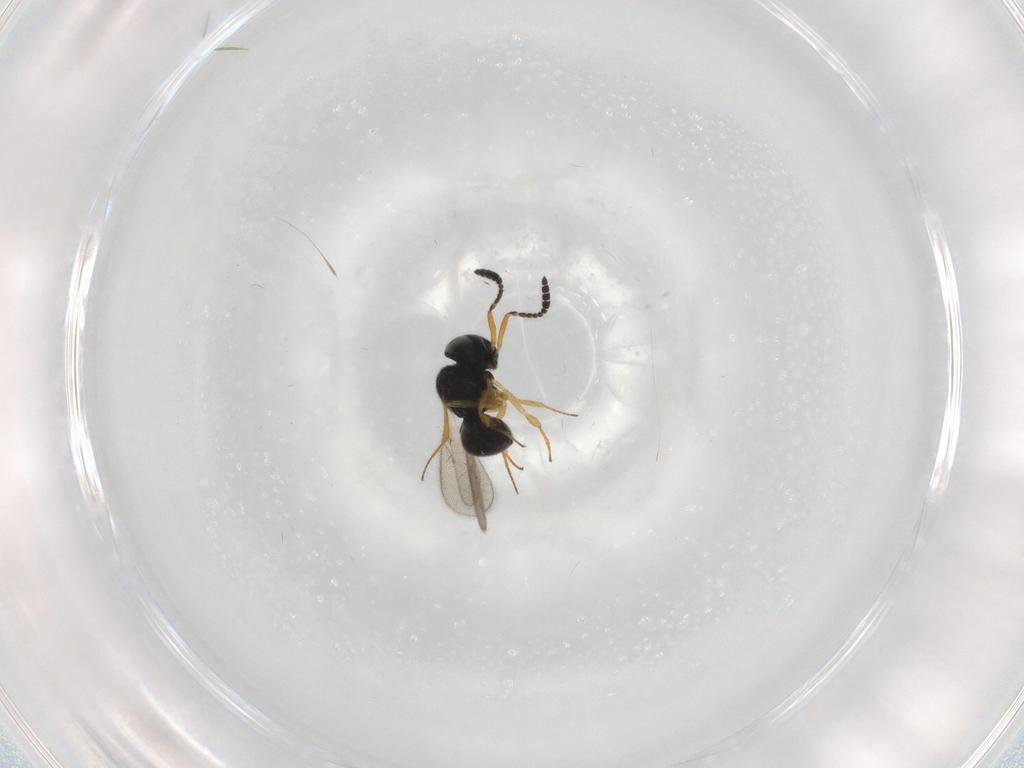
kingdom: Animalia
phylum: Arthropoda
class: Insecta
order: Hymenoptera
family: Scelionidae
